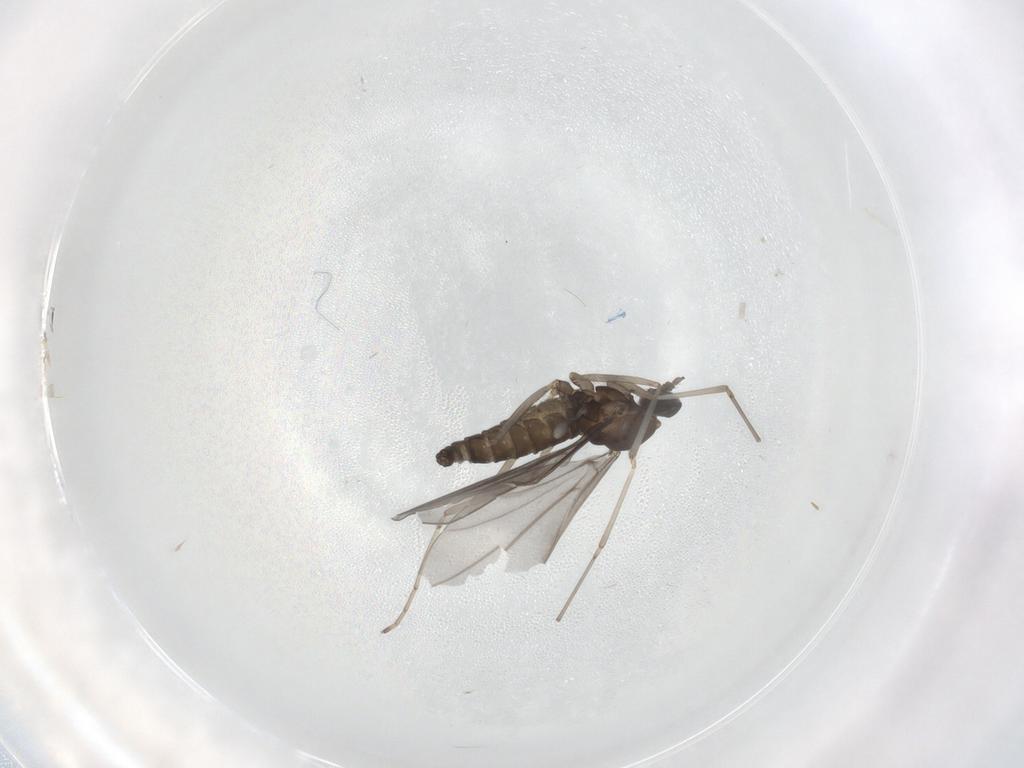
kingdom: Animalia
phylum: Arthropoda
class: Insecta
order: Diptera
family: Cecidomyiidae
